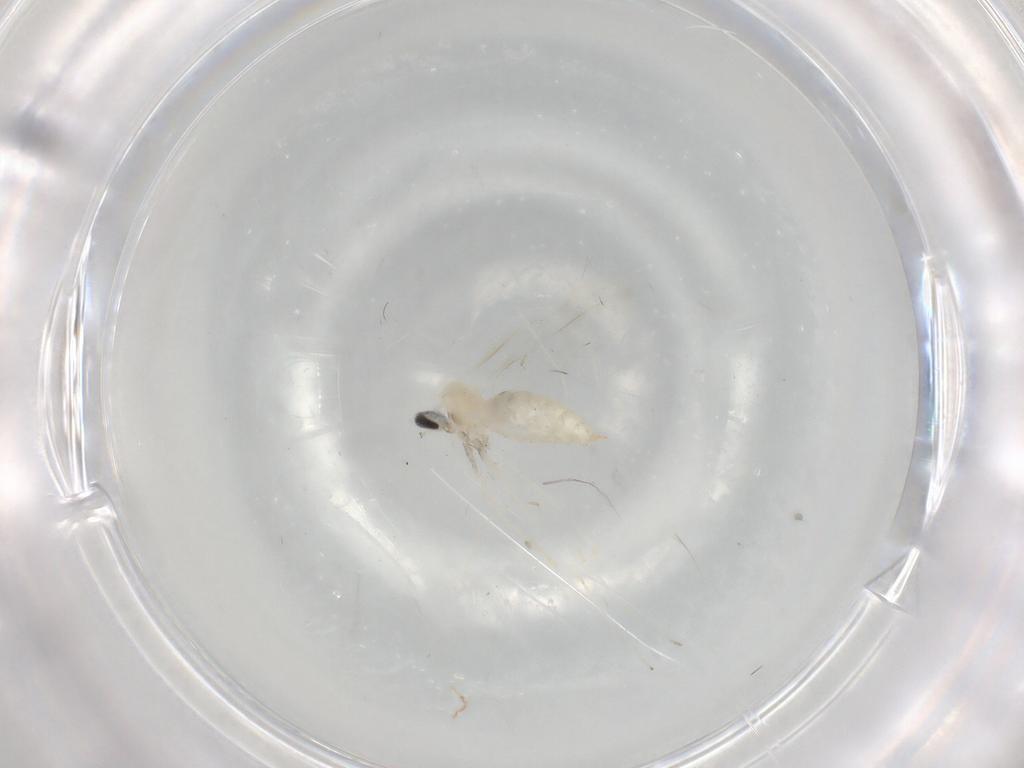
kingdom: Animalia
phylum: Arthropoda
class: Insecta
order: Diptera
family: Cecidomyiidae
